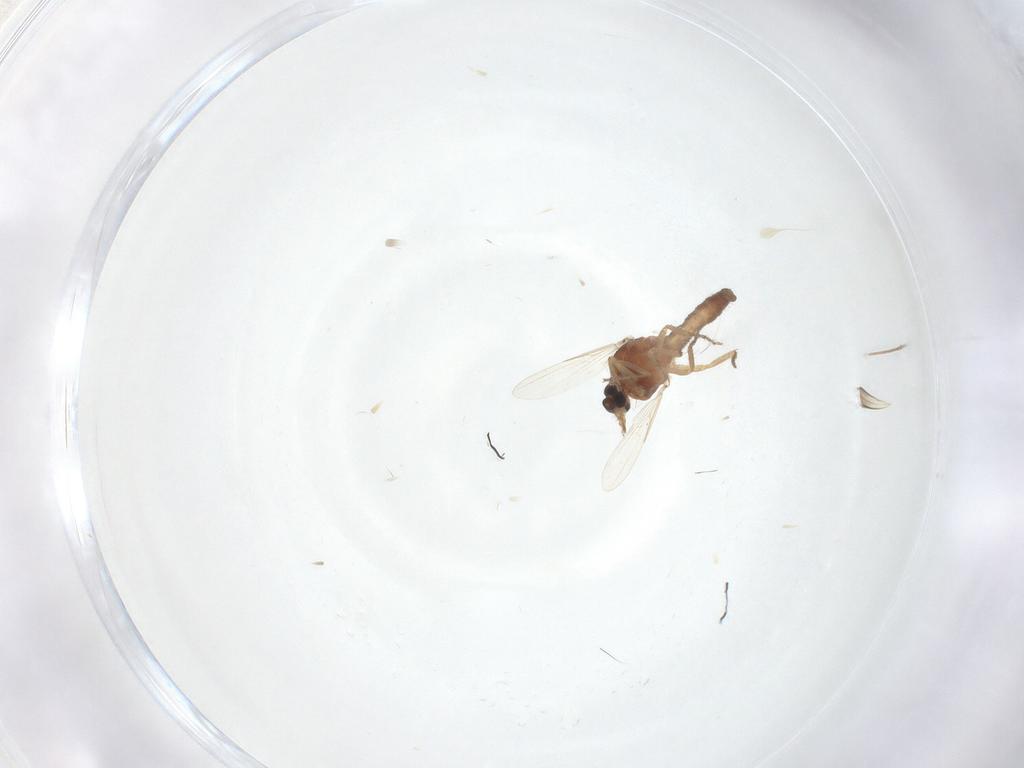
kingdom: Animalia
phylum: Arthropoda
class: Insecta
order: Diptera
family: Ceratopogonidae
